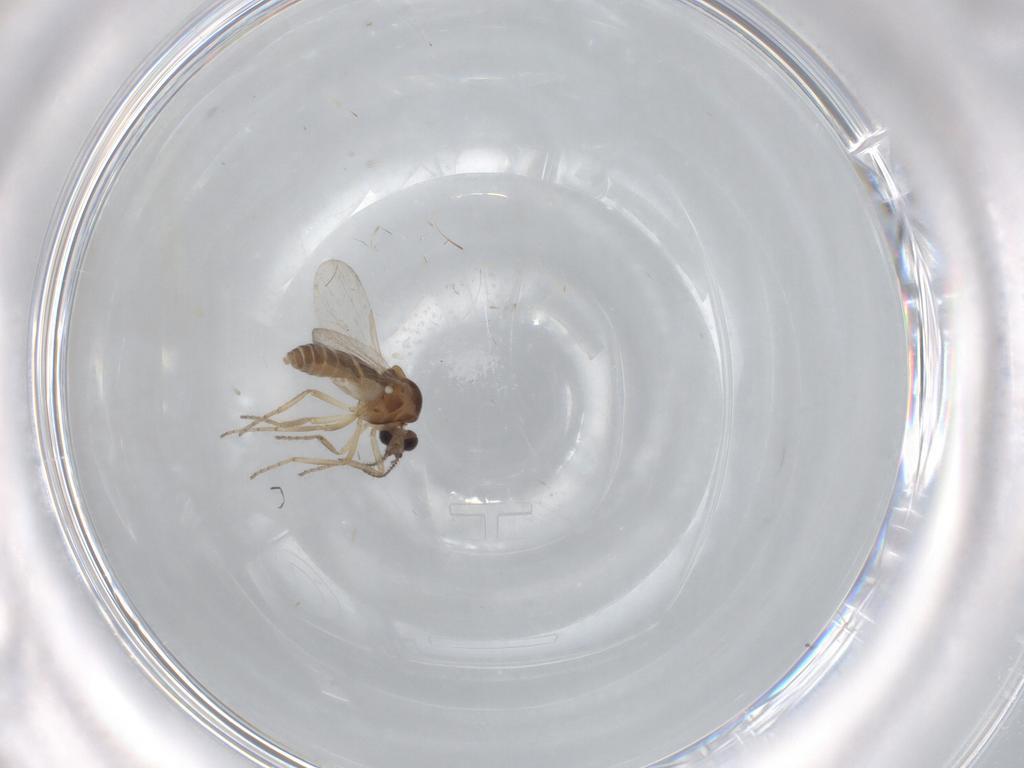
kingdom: Animalia
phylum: Arthropoda
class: Insecta
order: Diptera
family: Ceratopogonidae
